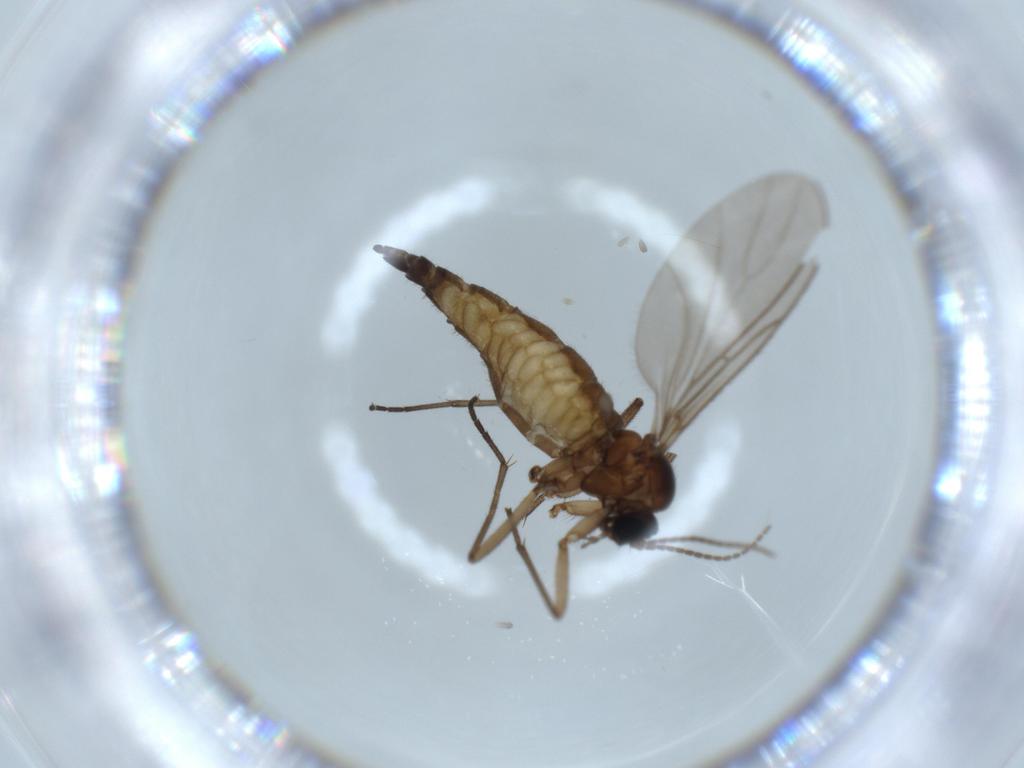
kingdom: Animalia
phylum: Arthropoda
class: Insecta
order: Diptera
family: Sciaridae
